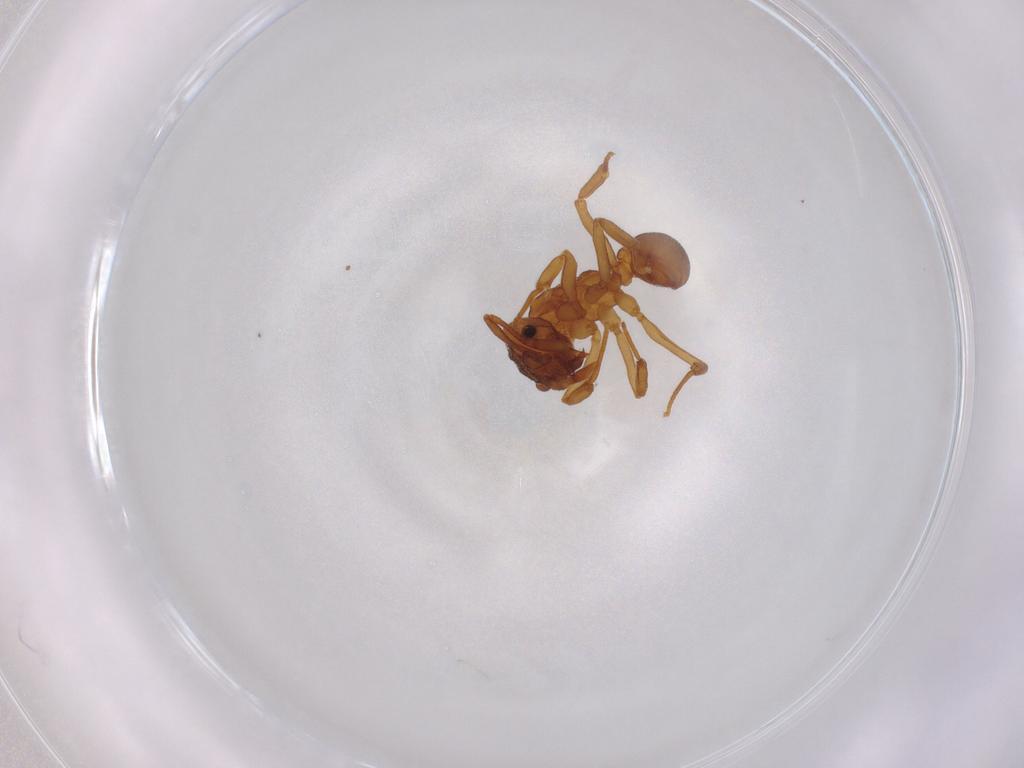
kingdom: Animalia
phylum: Arthropoda
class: Insecta
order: Hymenoptera
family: Formicidae
